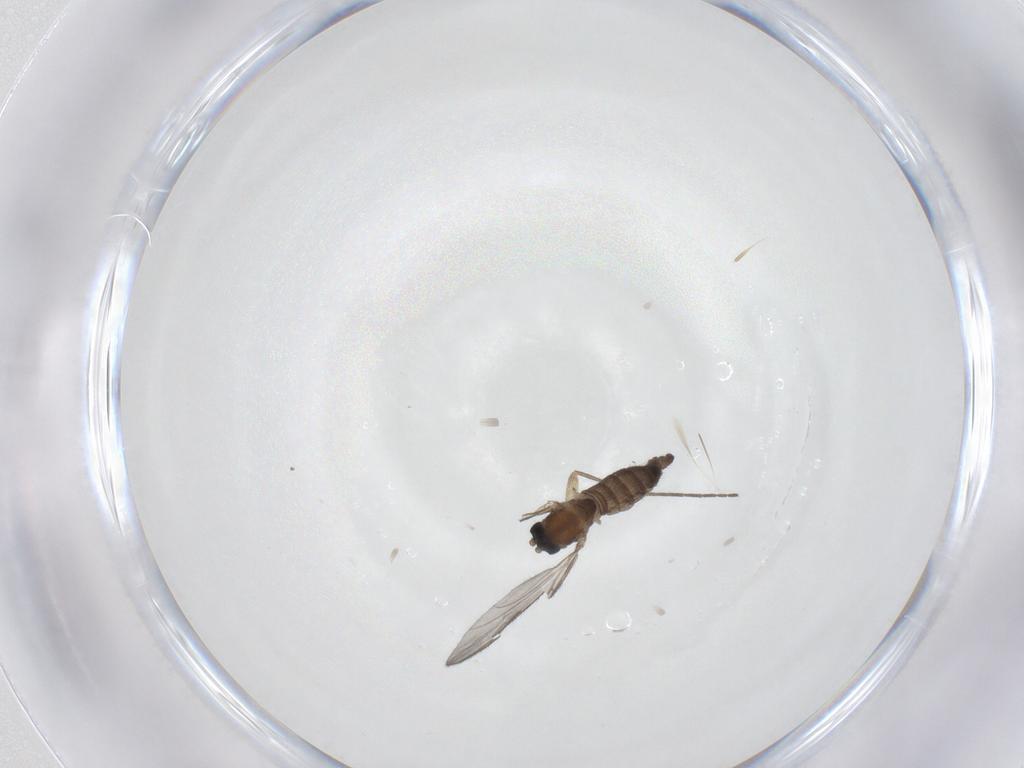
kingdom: Animalia
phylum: Arthropoda
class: Insecta
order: Diptera
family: Sciaridae
